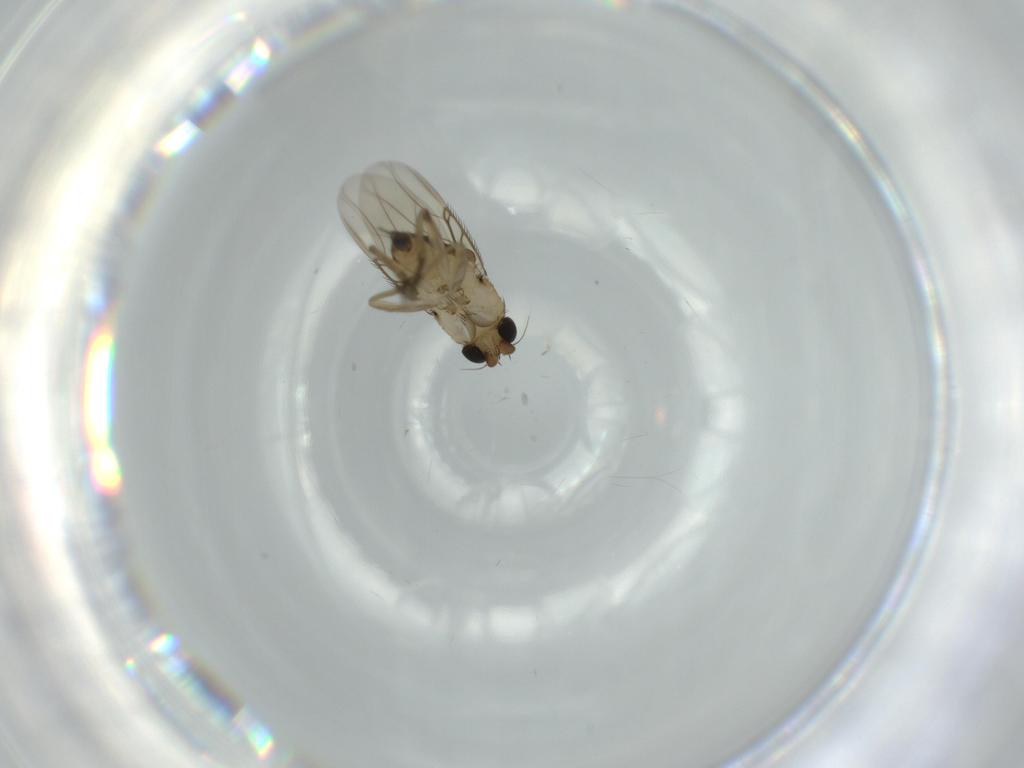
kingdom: Animalia
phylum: Arthropoda
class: Insecta
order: Diptera
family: Phoridae
